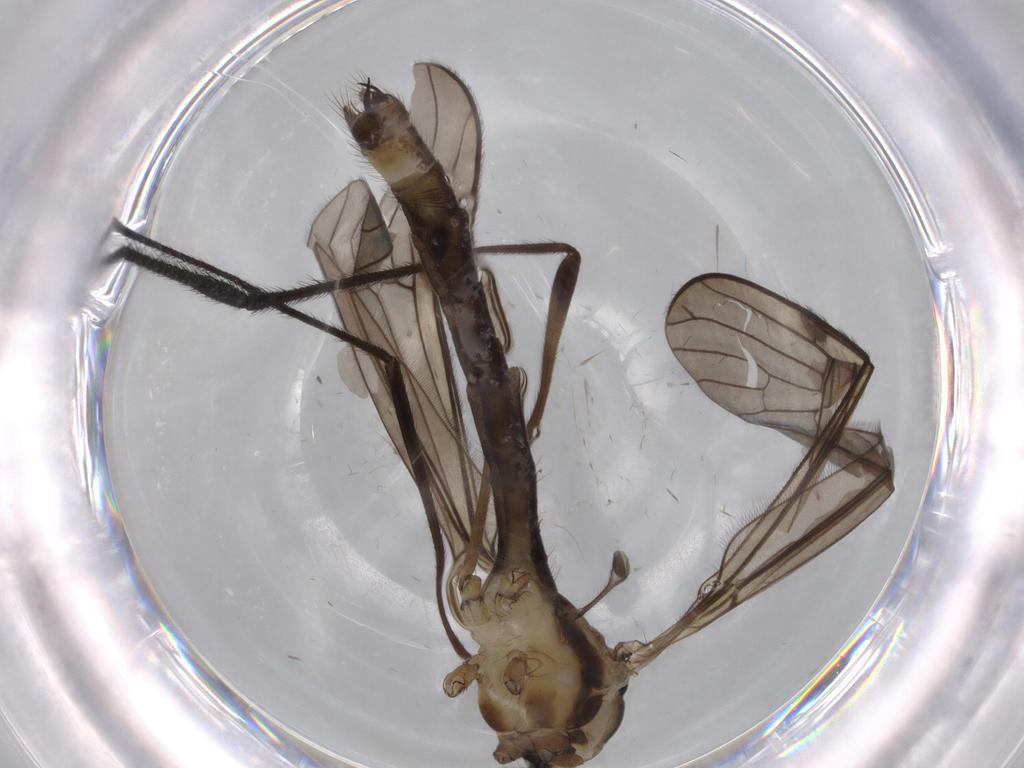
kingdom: Animalia
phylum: Arthropoda
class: Insecta
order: Diptera
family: Limoniidae
